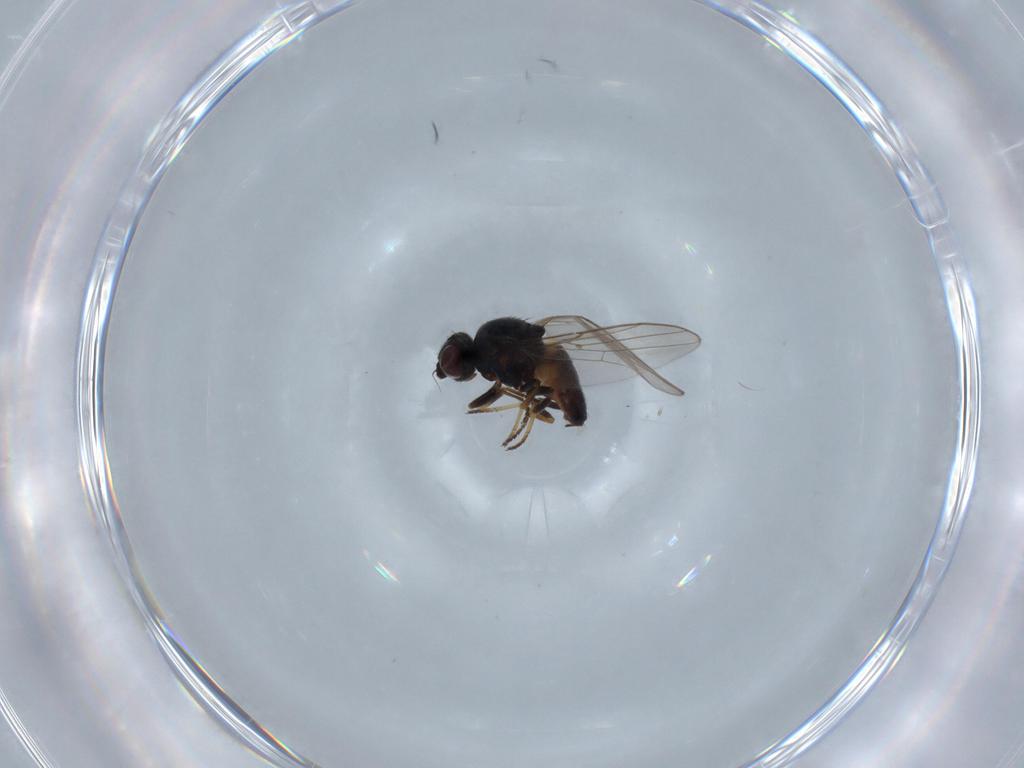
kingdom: Animalia
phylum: Arthropoda
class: Insecta
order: Diptera
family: Chloropidae
